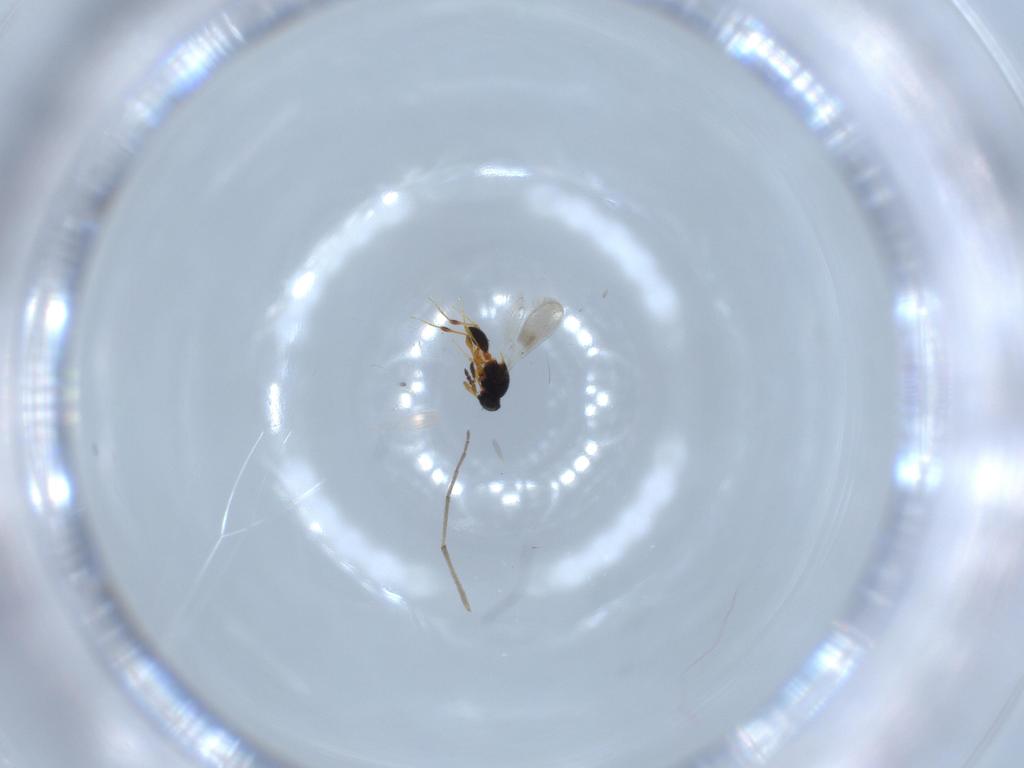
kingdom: Animalia
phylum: Arthropoda
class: Insecta
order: Hymenoptera
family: Platygastridae
